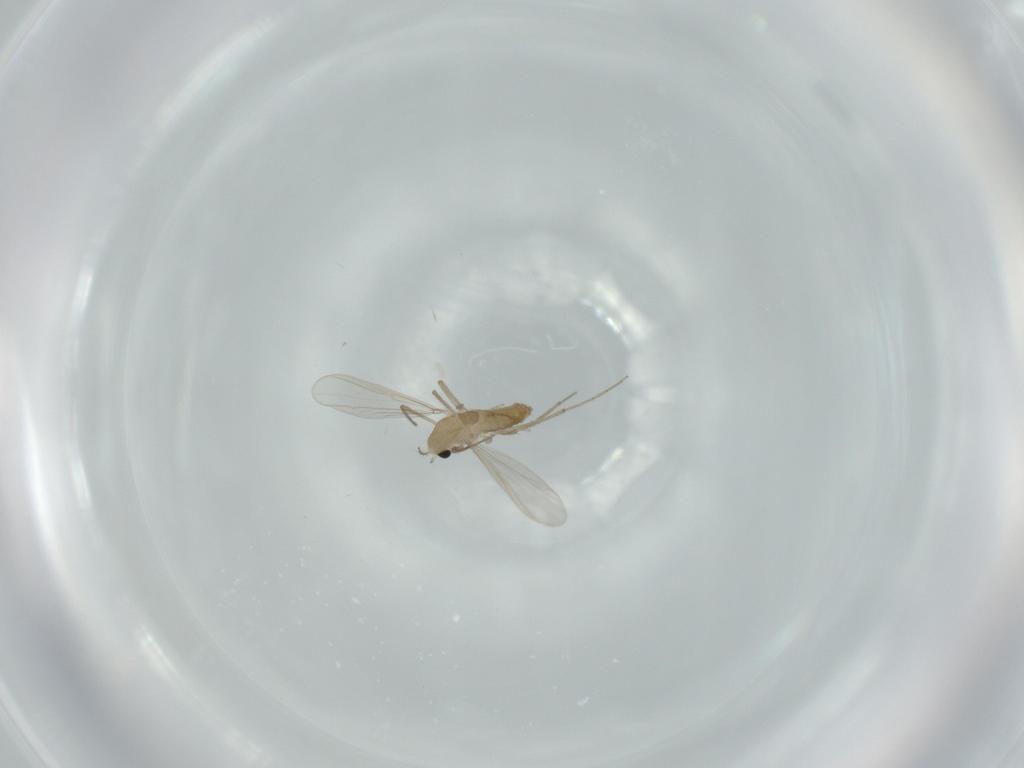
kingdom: Animalia
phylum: Arthropoda
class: Insecta
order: Diptera
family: Chironomidae
